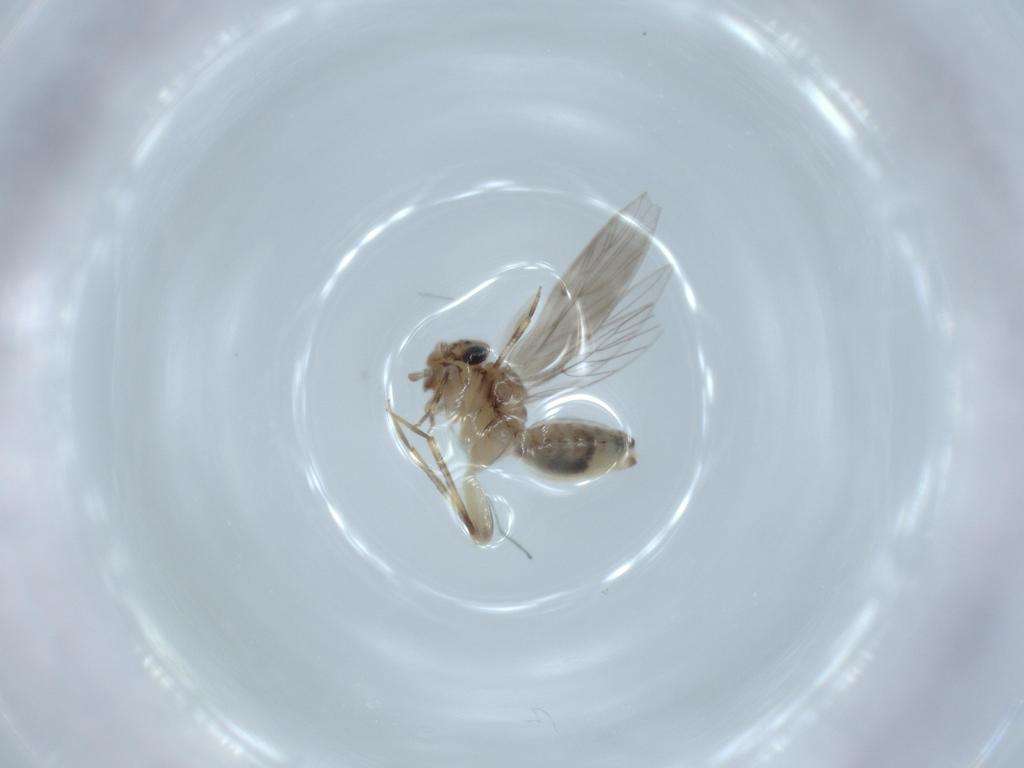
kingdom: Animalia
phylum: Arthropoda
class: Insecta
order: Psocodea
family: Lepidopsocidae
